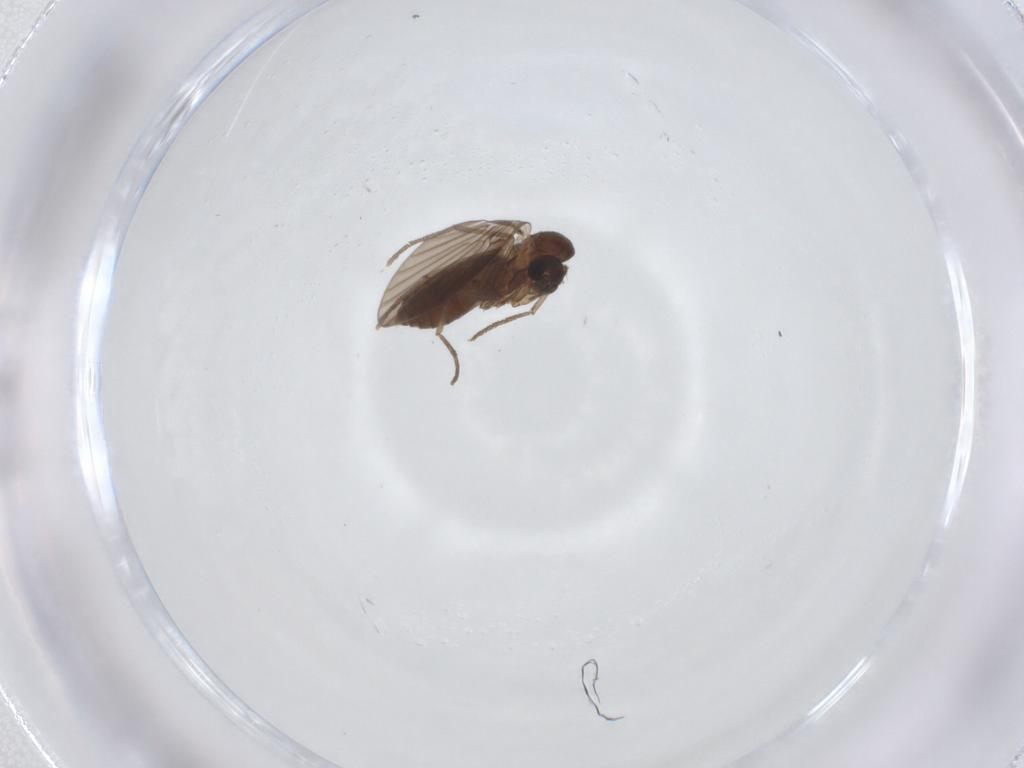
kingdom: Animalia
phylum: Arthropoda
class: Insecta
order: Diptera
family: Psychodidae
